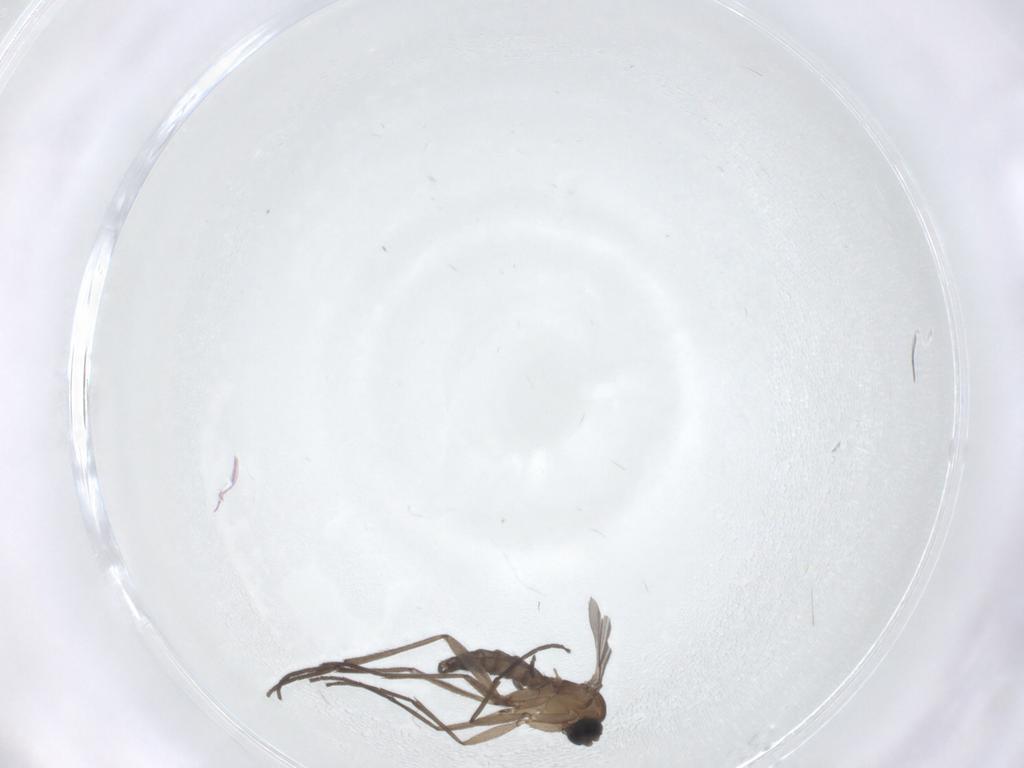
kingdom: Animalia
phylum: Arthropoda
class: Insecta
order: Diptera
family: Sciaridae
